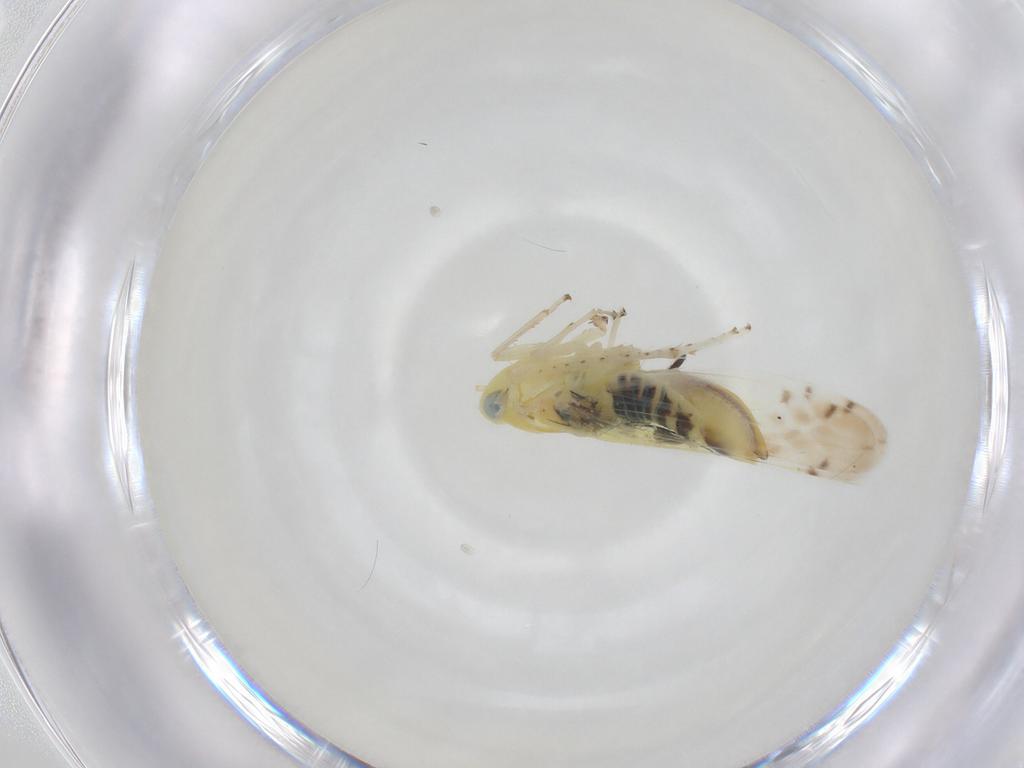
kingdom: Animalia
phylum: Arthropoda
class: Insecta
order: Hemiptera
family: Cicadellidae
